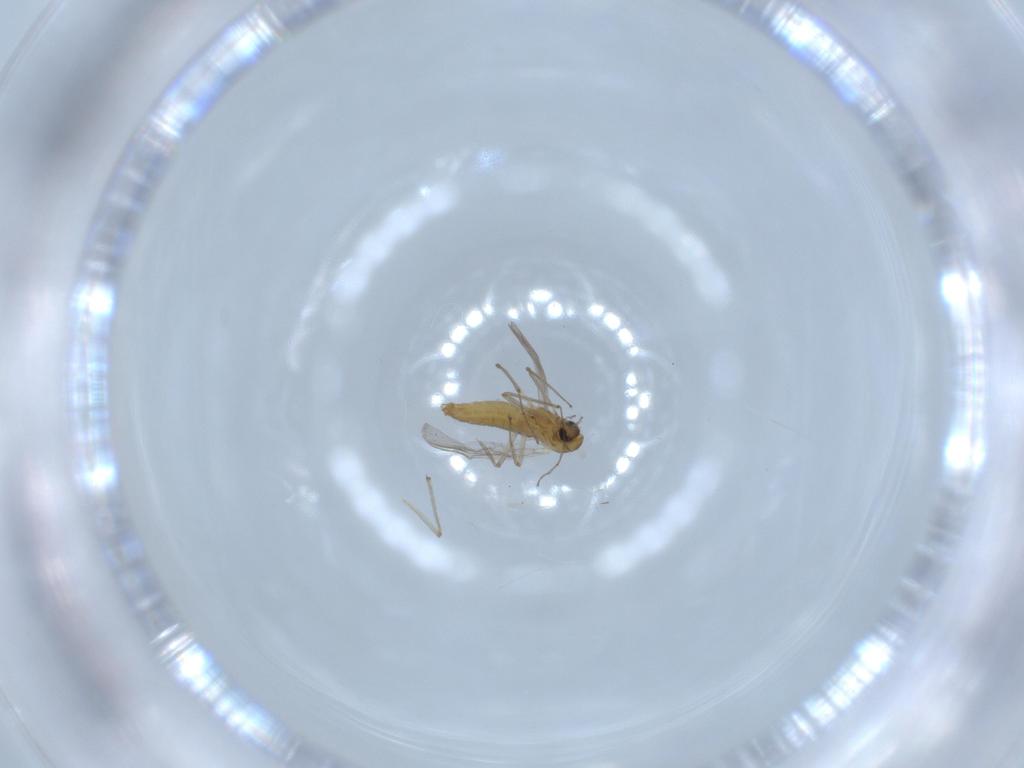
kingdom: Animalia
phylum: Arthropoda
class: Insecta
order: Diptera
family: Chironomidae
